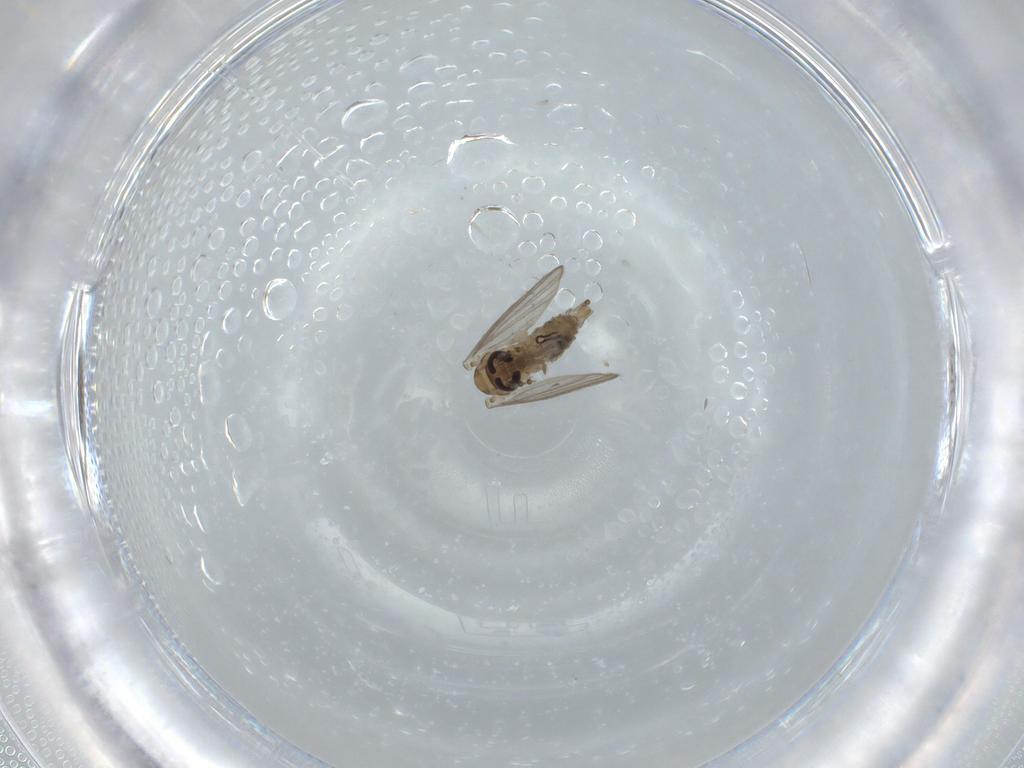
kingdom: Animalia
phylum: Arthropoda
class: Insecta
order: Diptera
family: Psychodidae
